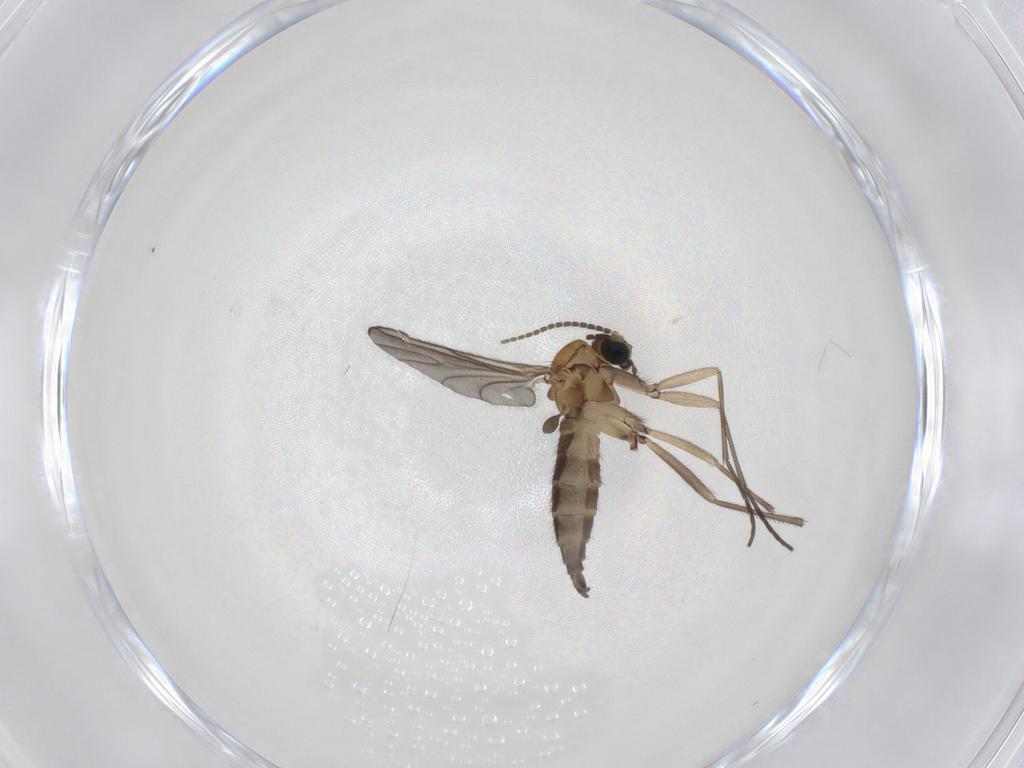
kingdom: Animalia
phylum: Arthropoda
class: Insecta
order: Diptera
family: Sciaridae
